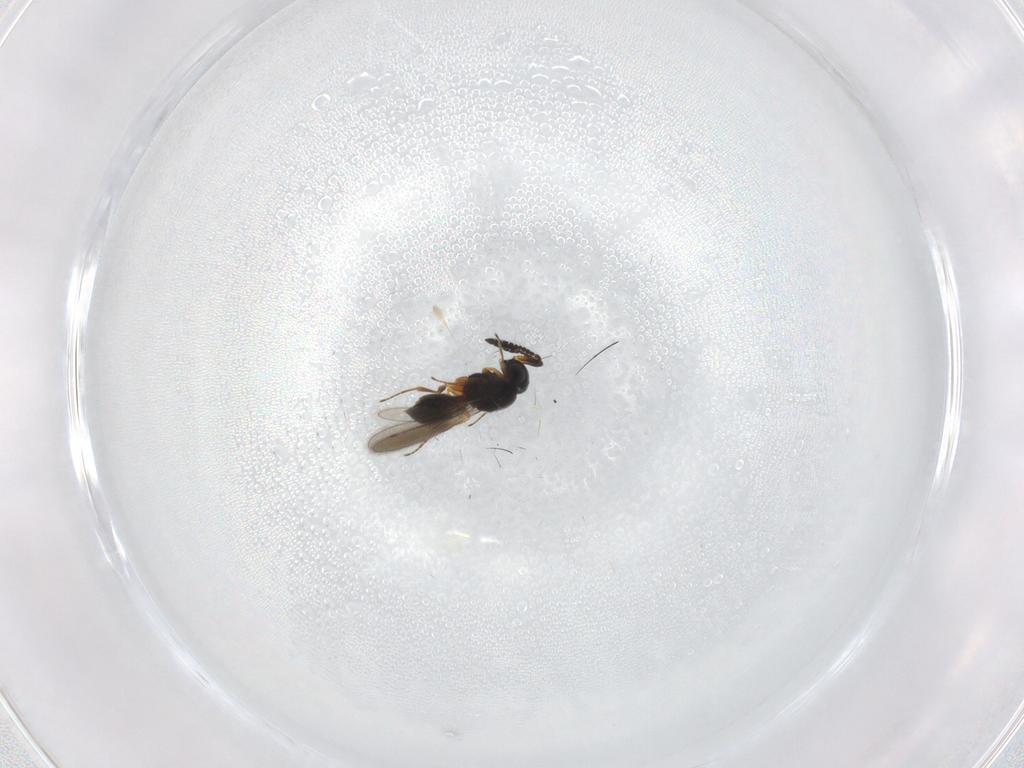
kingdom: Animalia
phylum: Arthropoda
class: Insecta
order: Hymenoptera
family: Scelionidae
